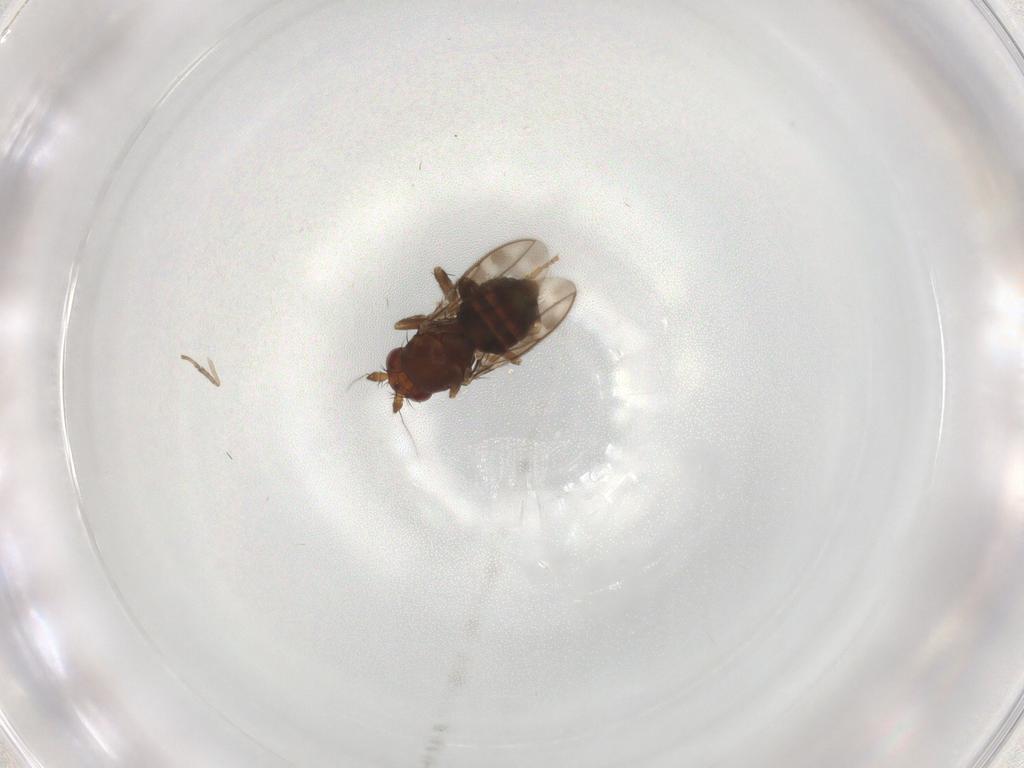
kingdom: Animalia
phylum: Arthropoda
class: Insecta
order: Diptera
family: Sphaeroceridae
